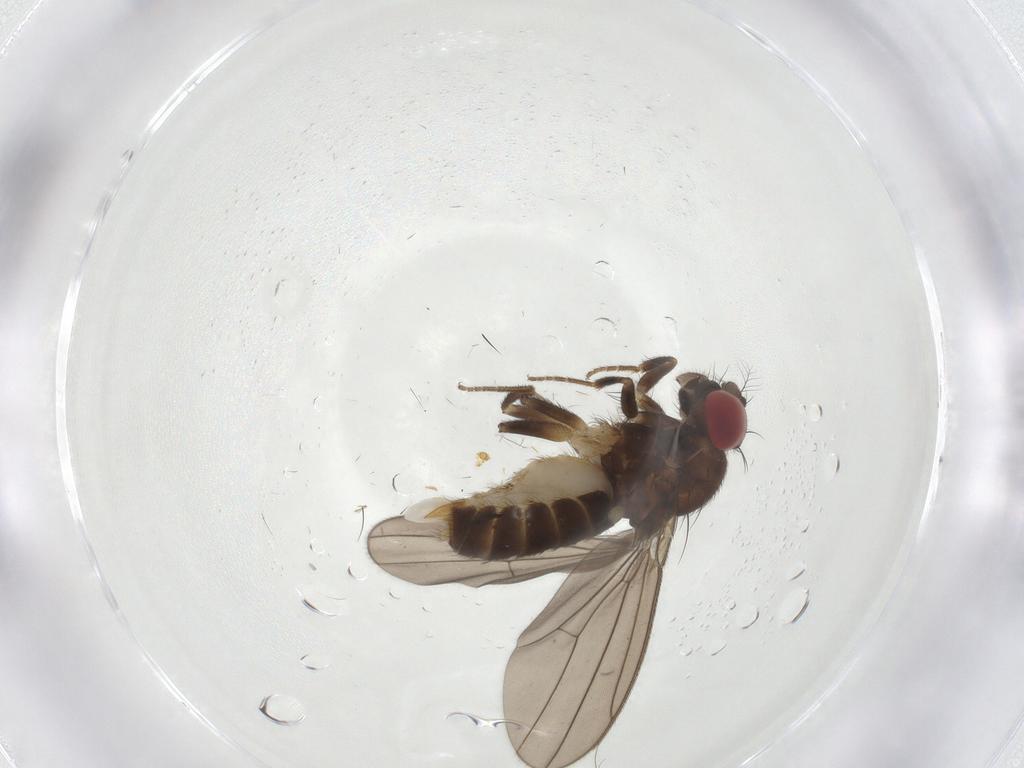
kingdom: Animalia
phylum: Arthropoda
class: Insecta
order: Diptera
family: Drosophilidae
